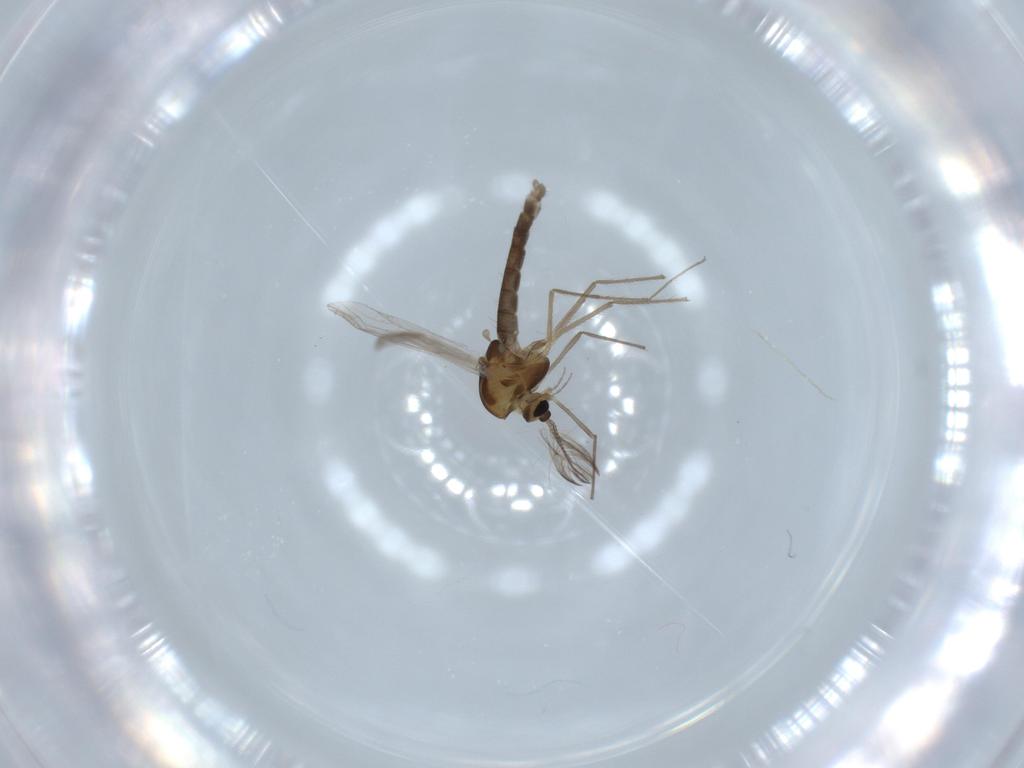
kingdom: Animalia
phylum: Arthropoda
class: Insecta
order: Diptera
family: Chironomidae
